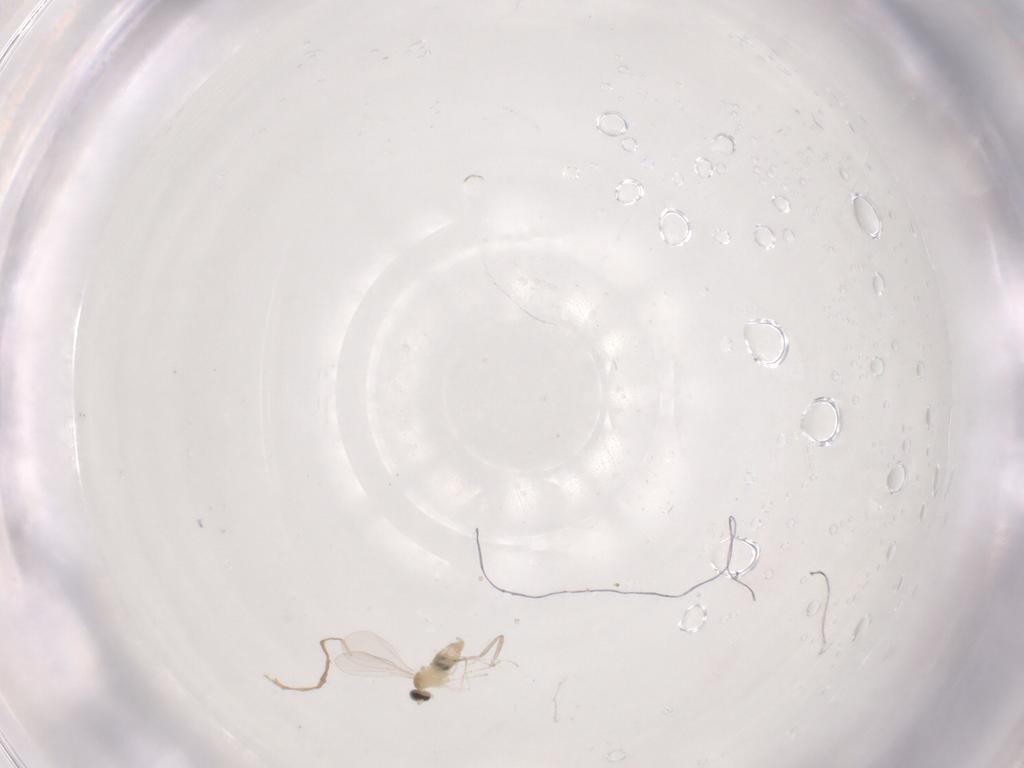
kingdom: Animalia
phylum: Arthropoda
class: Insecta
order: Diptera
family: Cecidomyiidae
